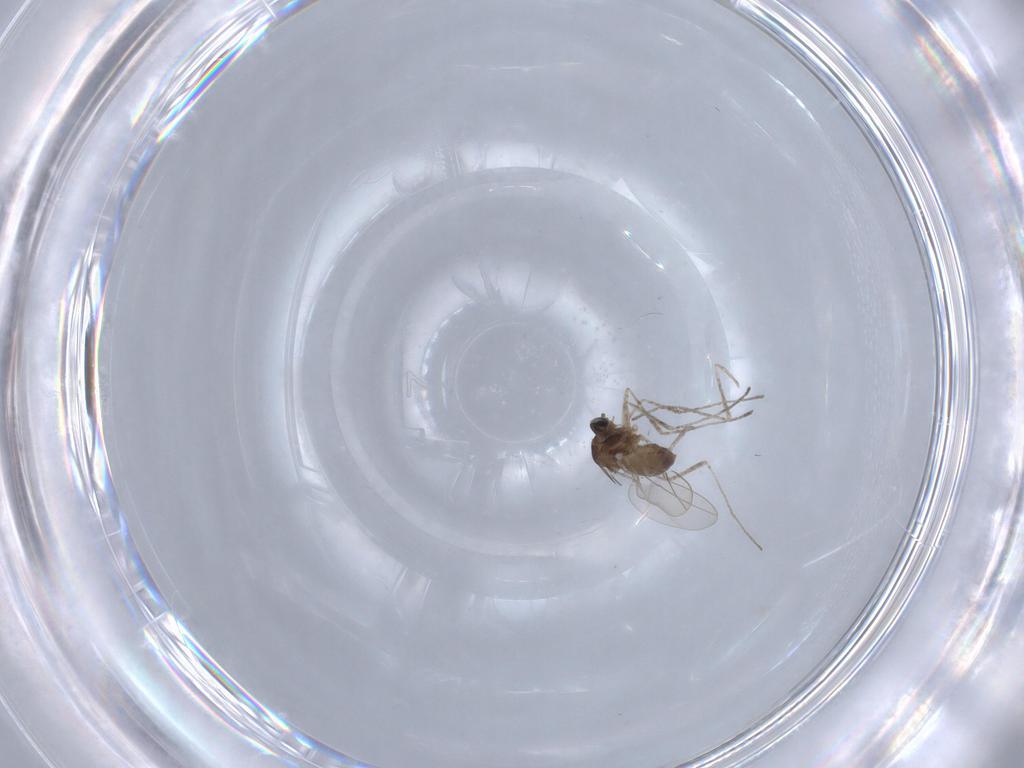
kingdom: Animalia
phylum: Arthropoda
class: Insecta
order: Diptera
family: Cecidomyiidae
